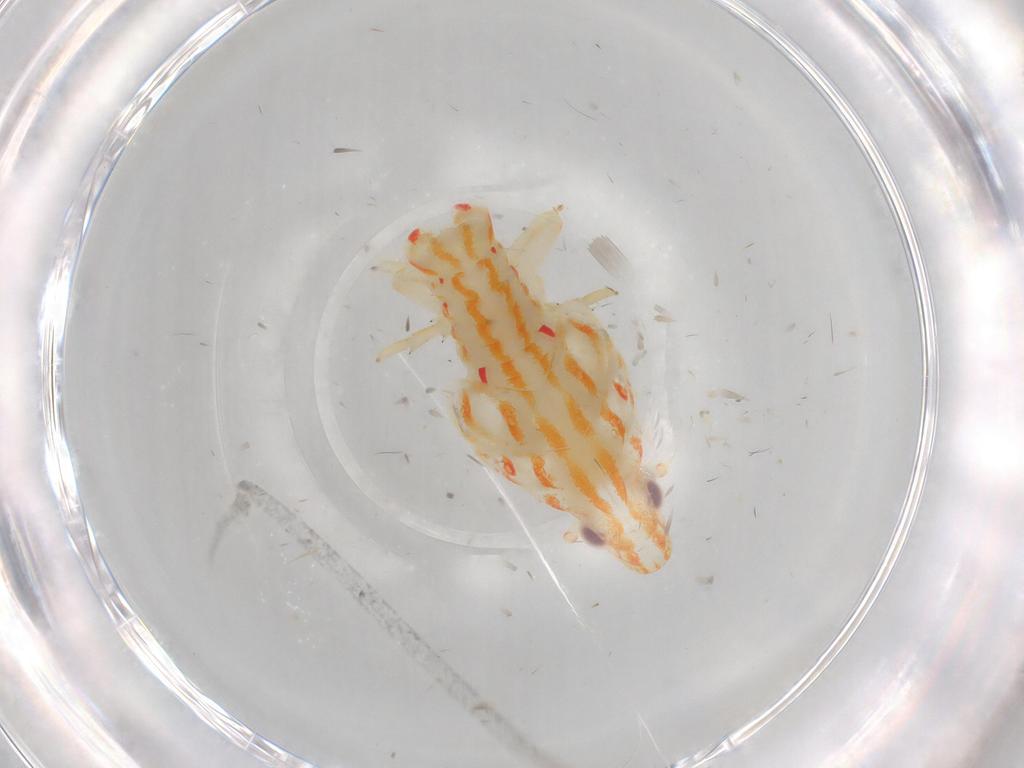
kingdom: Animalia
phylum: Arthropoda
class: Insecta
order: Hemiptera
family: Flatidae
